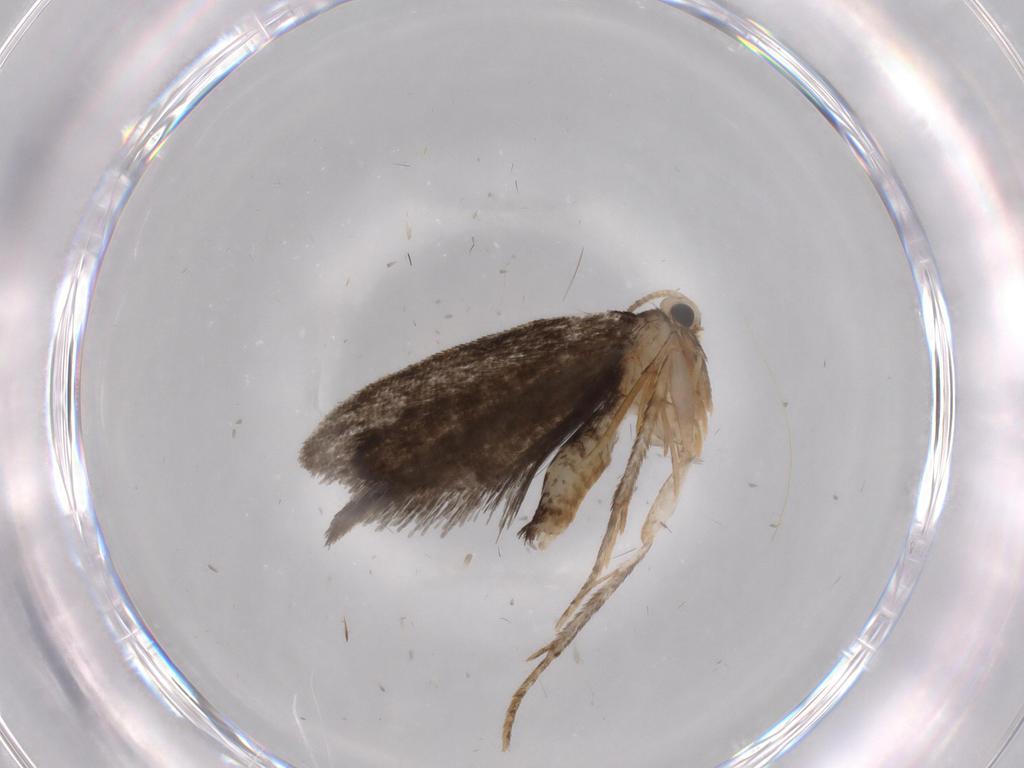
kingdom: Animalia
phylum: Arthropoda
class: Insecta
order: Lepidoptera
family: Psychidae
